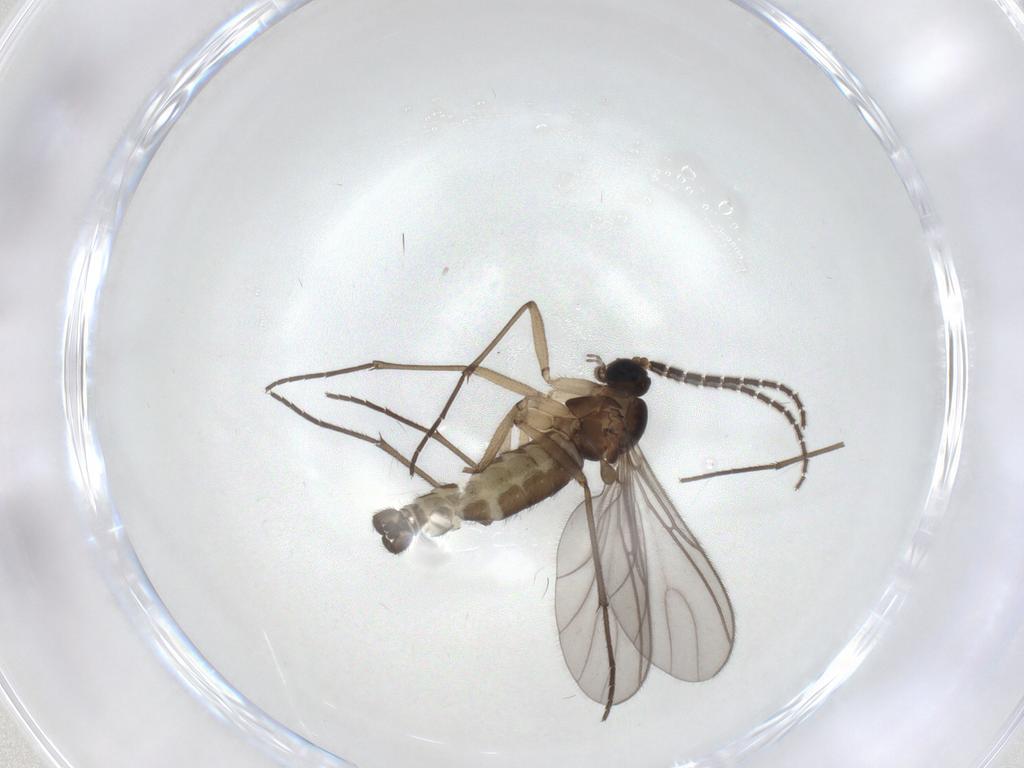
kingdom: Animalia
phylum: Arthropoda
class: Insecta
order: Diptera
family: Sciaridae
